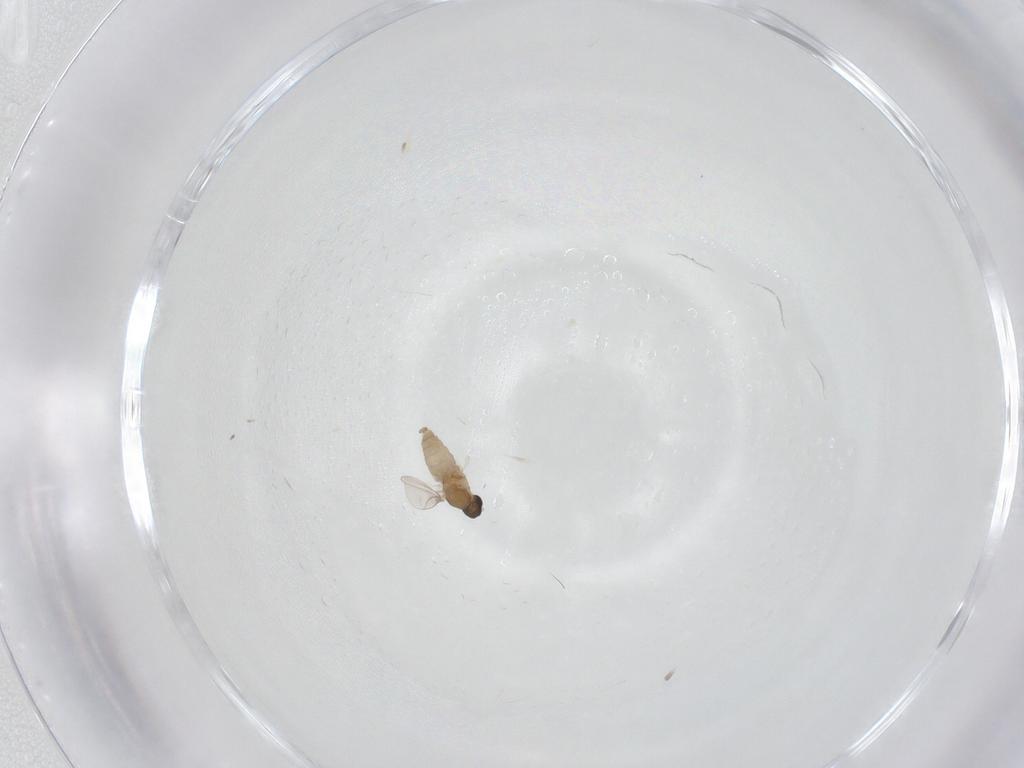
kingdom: Animalia
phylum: Arthropoda
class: Insecta
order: Diptera
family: Cecidomyiidae
